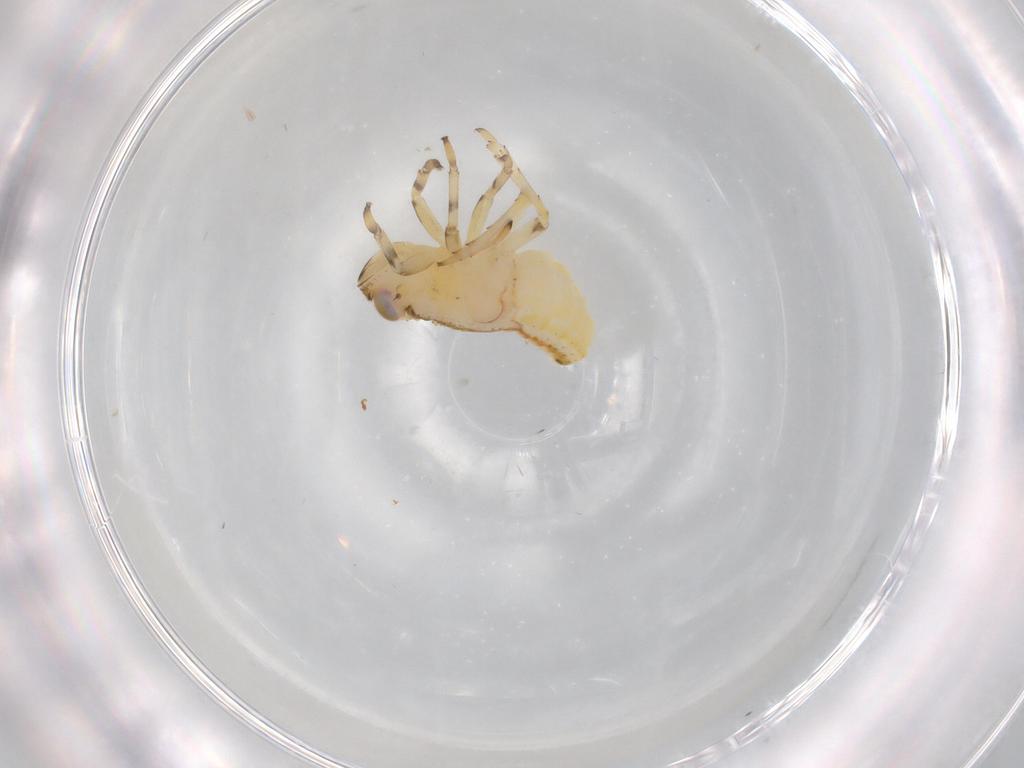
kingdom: Animalia
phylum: Arthropoda
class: Insecta
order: Hemiptera
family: Issidae
